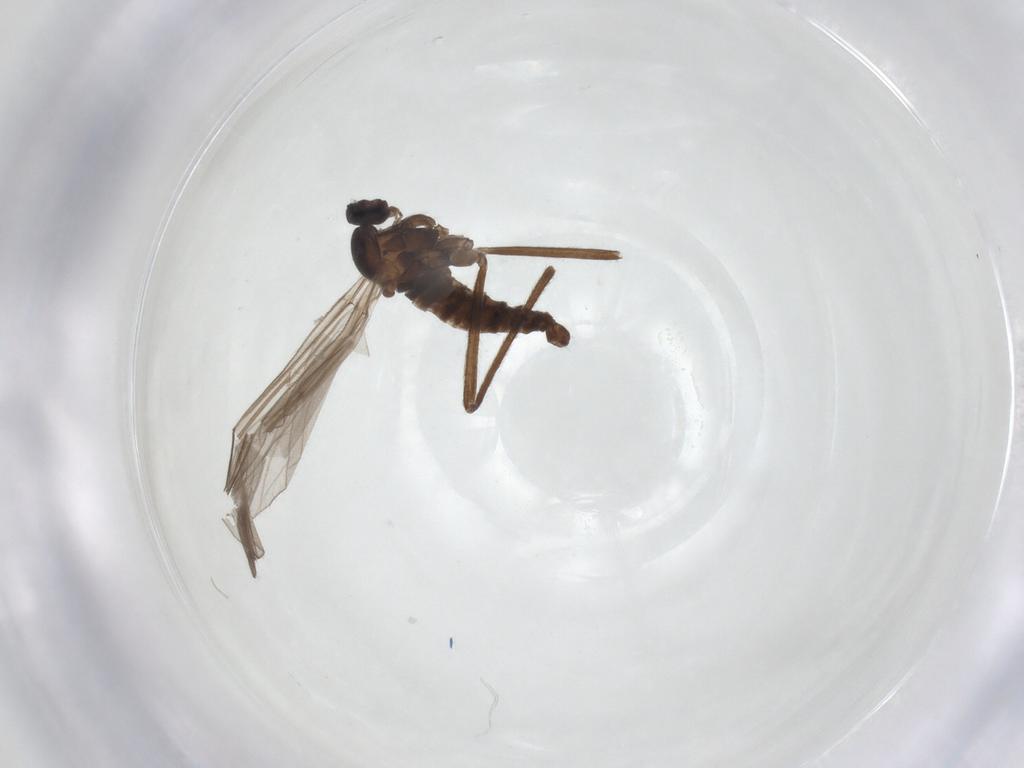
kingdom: Animalia
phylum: Arthropoda
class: Insecta
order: Diptera
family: Cecidomyiidae
